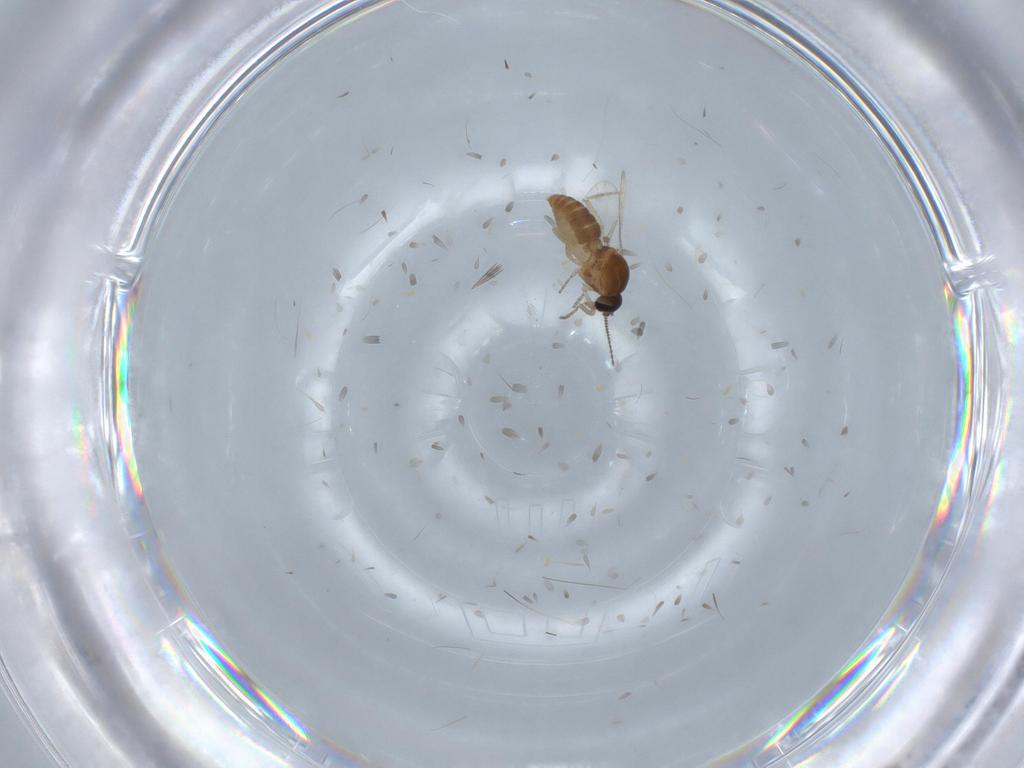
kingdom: Animalia
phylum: Arthropoda
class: Insecta
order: Diptera
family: Ceratopogonidae
